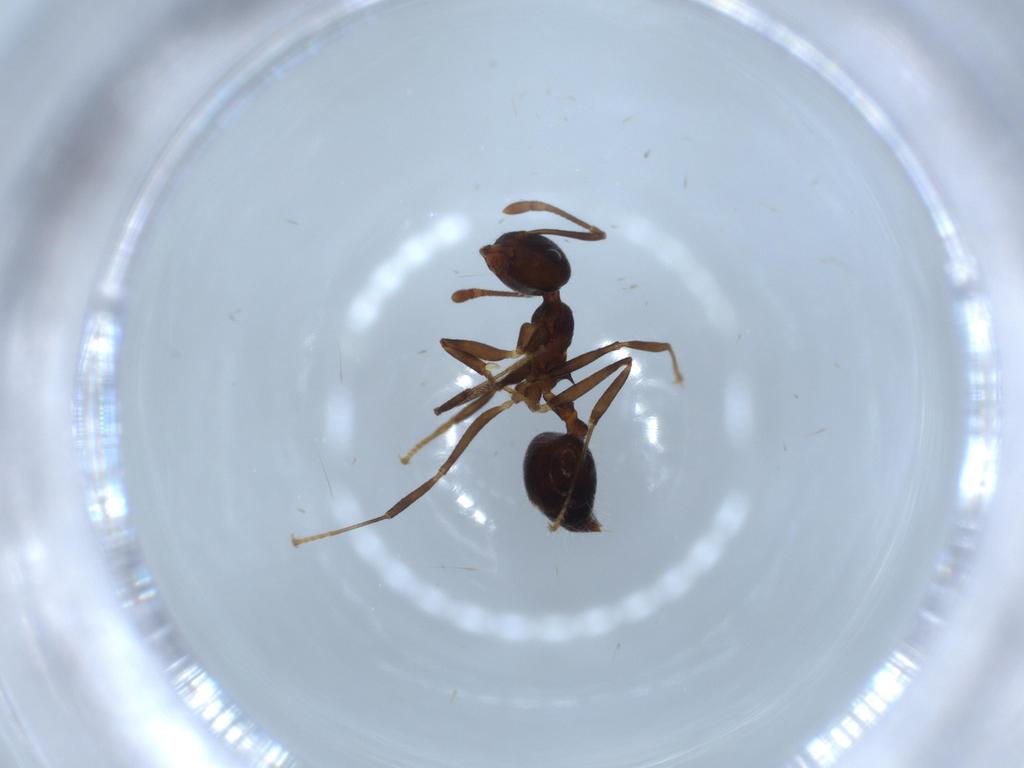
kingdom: Animalia
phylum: Arthropoda
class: Insecta
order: Hymenoptera
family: Formicidae
